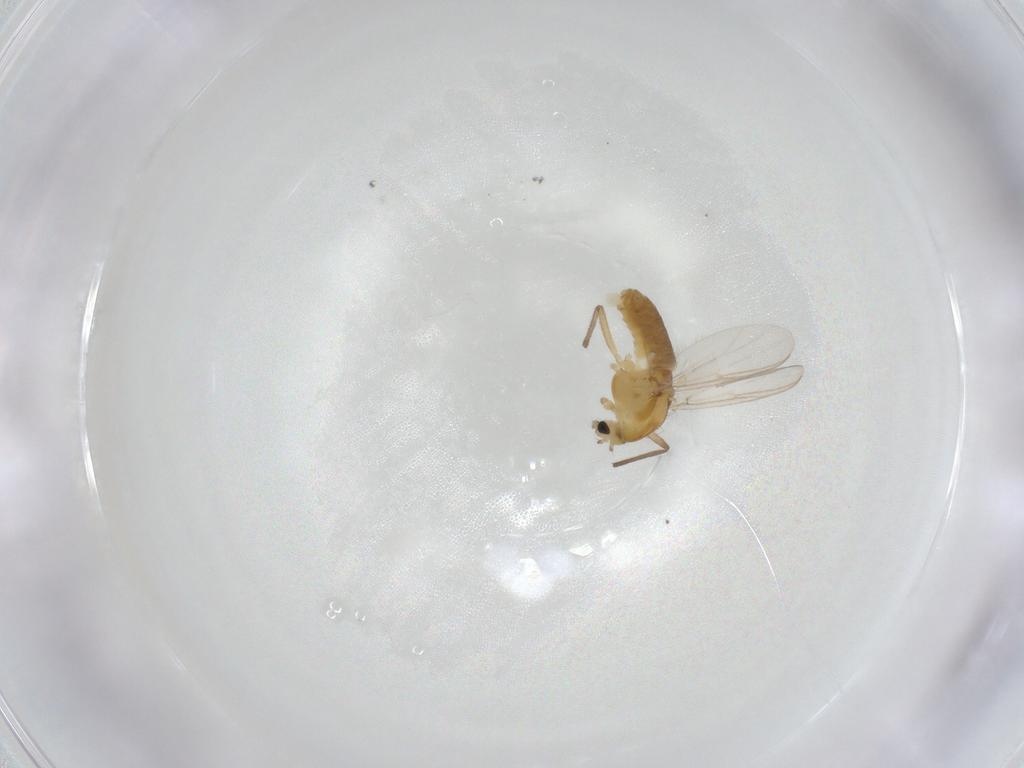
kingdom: Animalia
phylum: Arthropoda
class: Insecta
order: Diptera
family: Chironomidae
